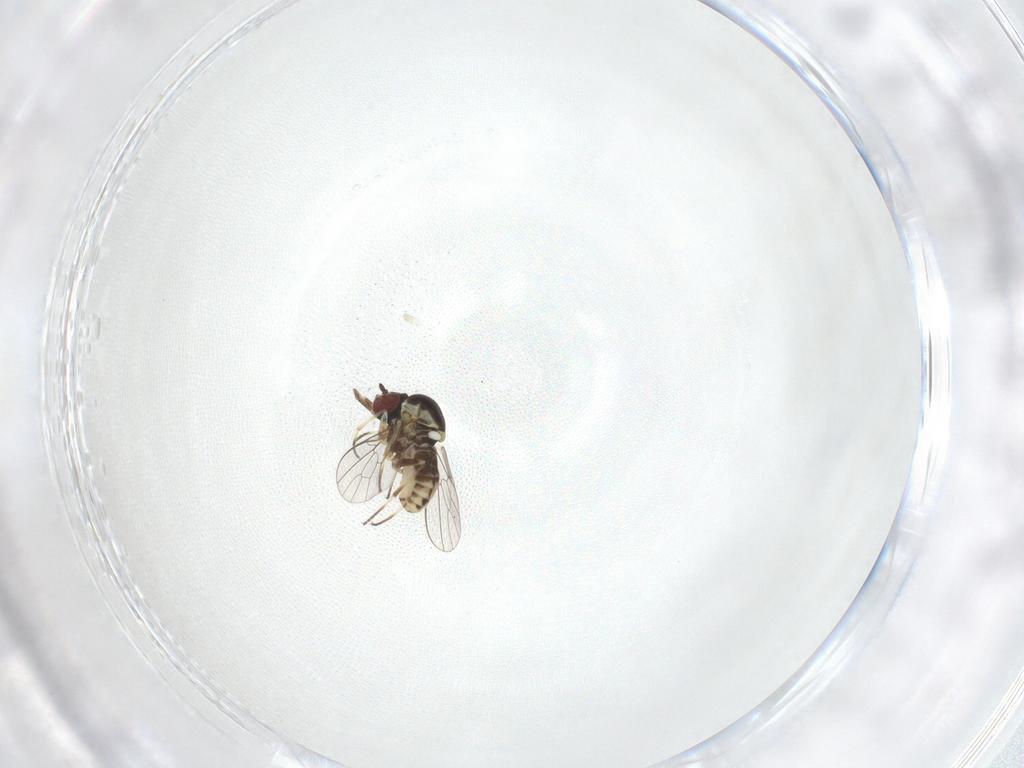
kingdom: Animalia
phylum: Arthropoda
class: Insecta
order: Diptera
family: Mythicomyiidae
